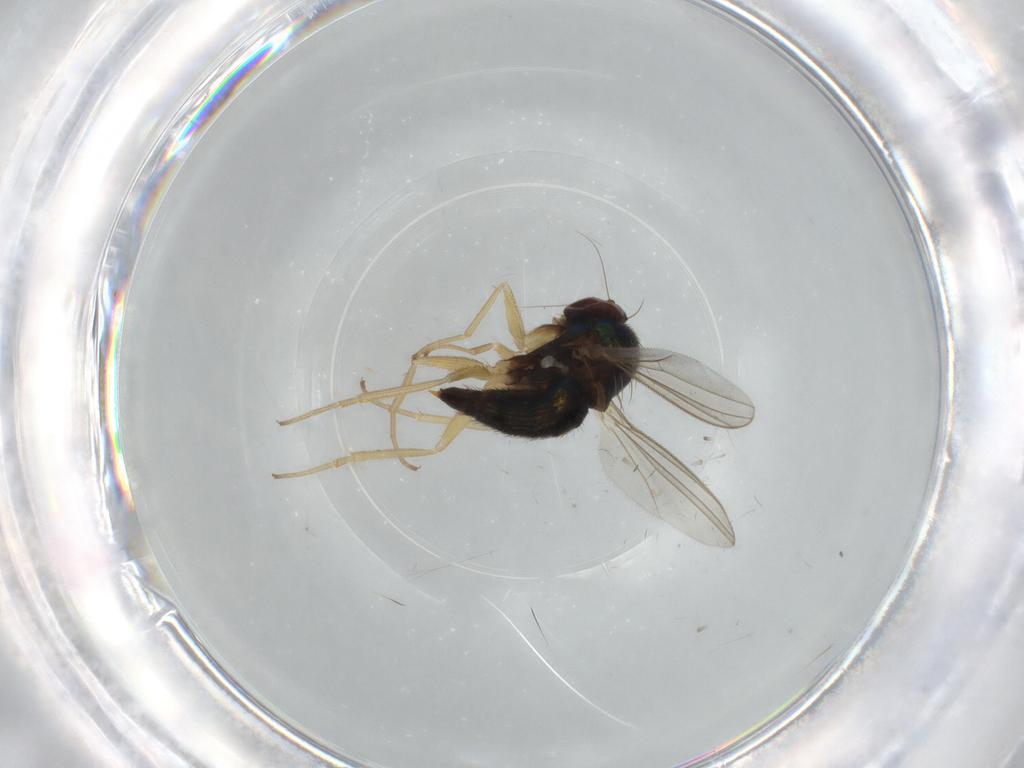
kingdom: Animalia
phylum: Arthropoda
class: Insecta
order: Diptera
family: Dolichopodidae
